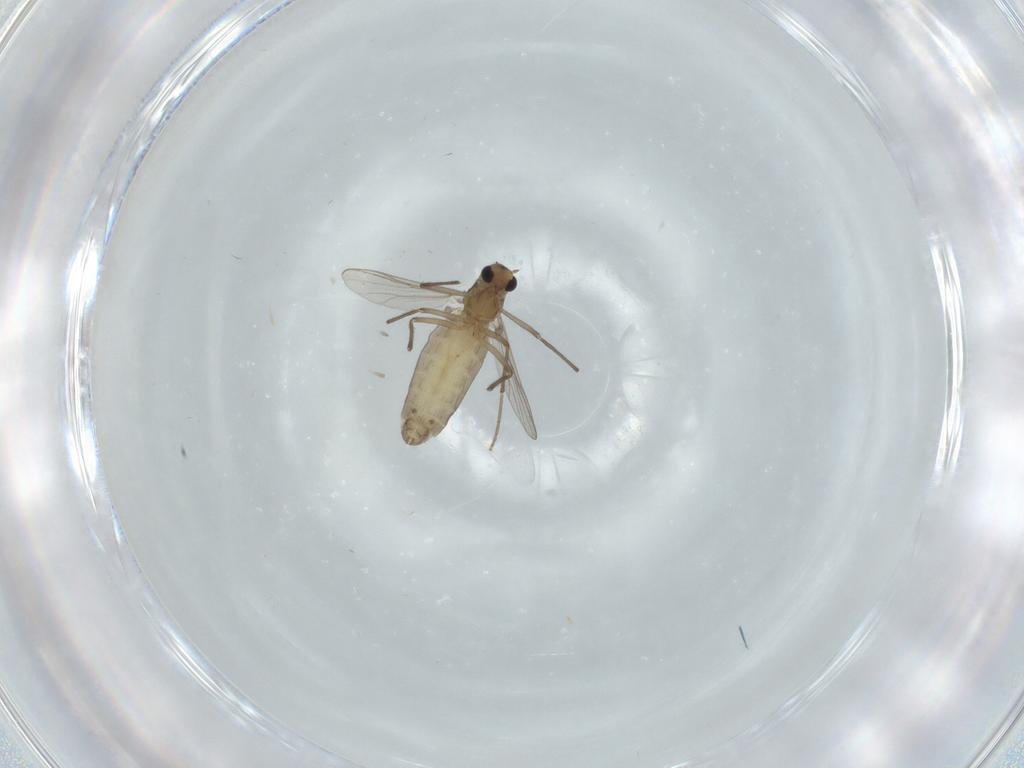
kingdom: Animalia
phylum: Arthropoda
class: Insecta
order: Diptera
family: Chironomidae
